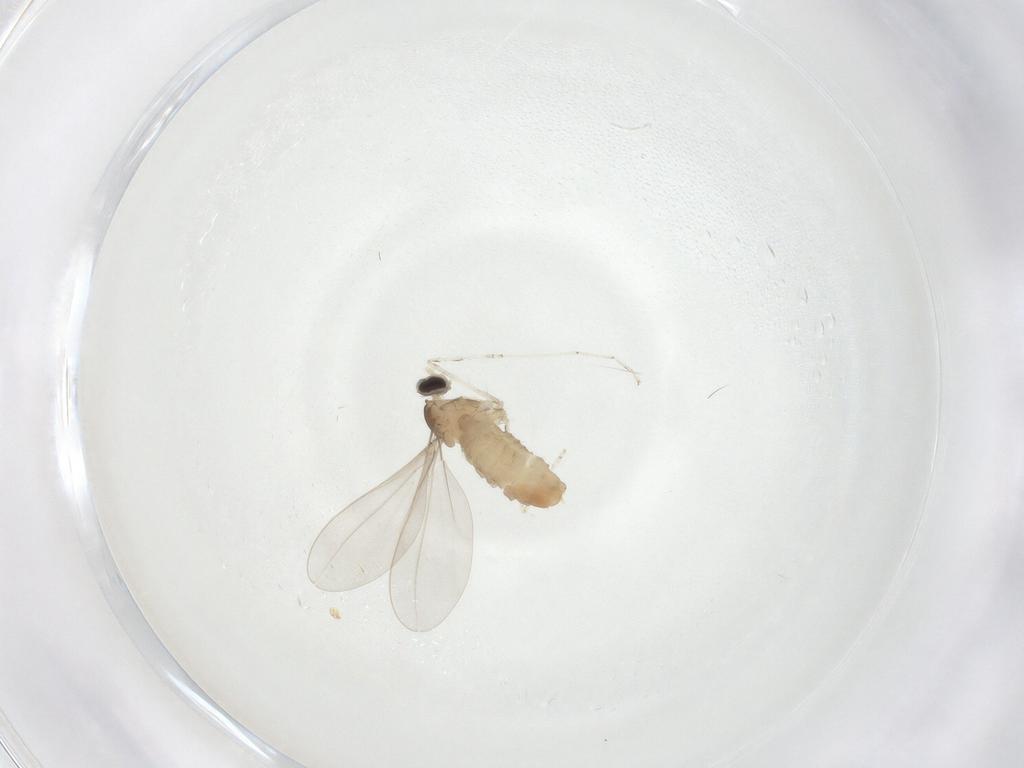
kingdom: Animalia
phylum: Arthropoda
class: Insecta
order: Diptera
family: Cecidomyiidae
